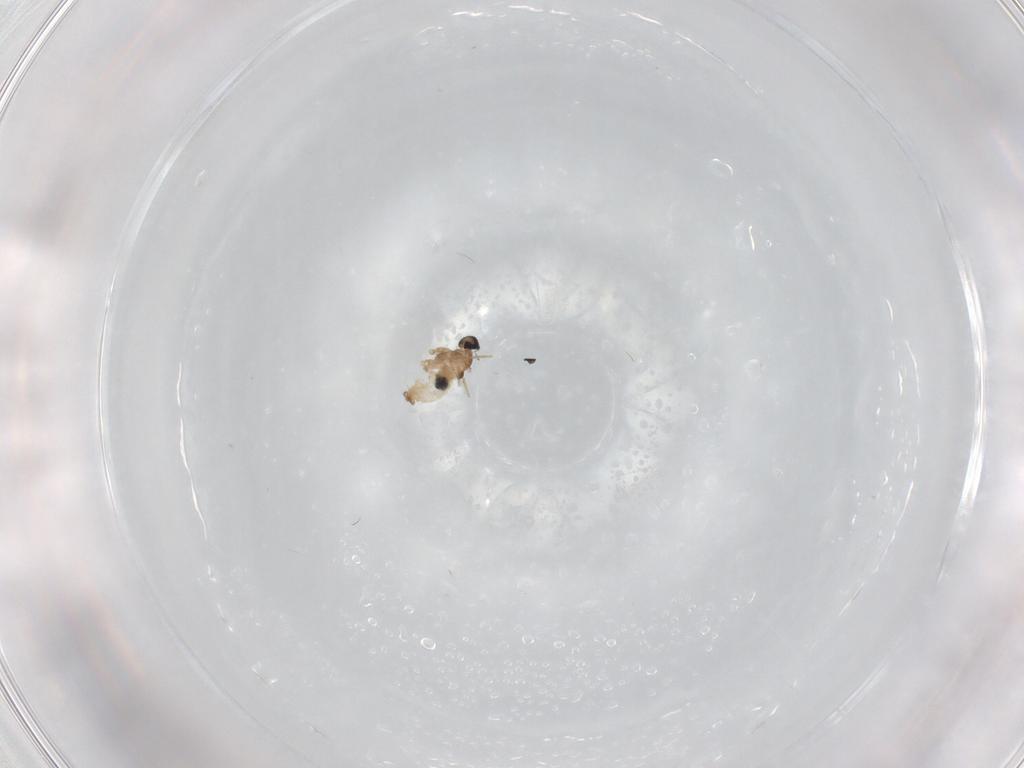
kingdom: Animalia
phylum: Arthropoda
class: Insecta
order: Diptera
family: Cecidomyiidae
